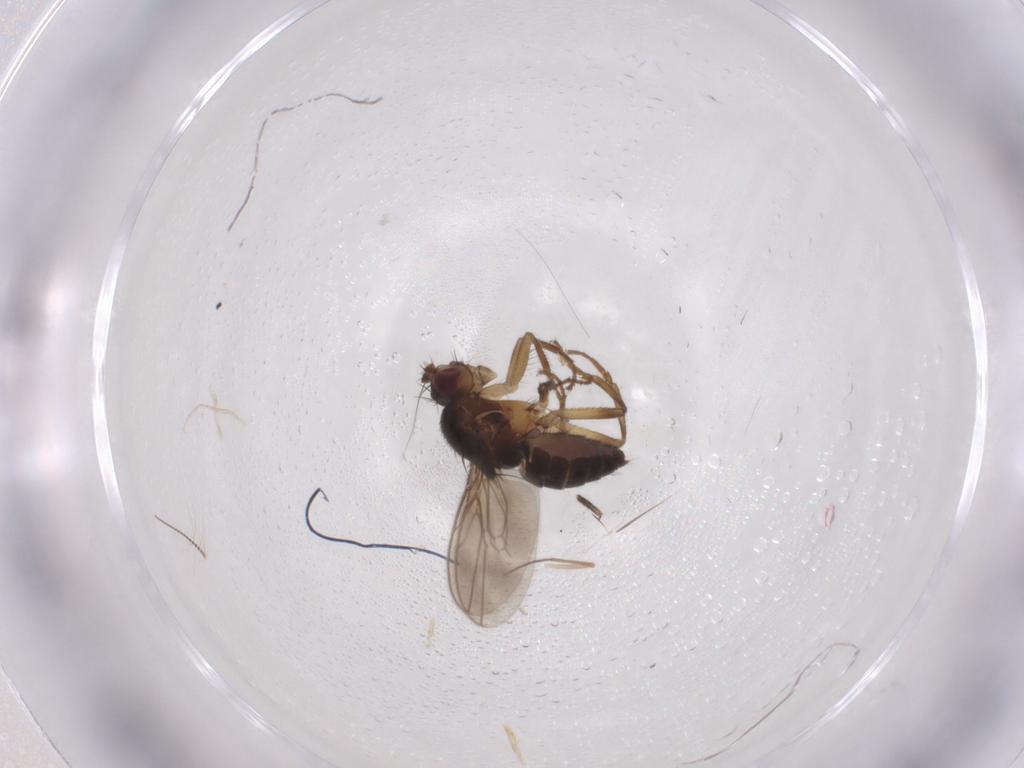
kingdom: Animalia
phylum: Arthropoda
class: Insecta
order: Diptera
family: Sphaeroceridae
